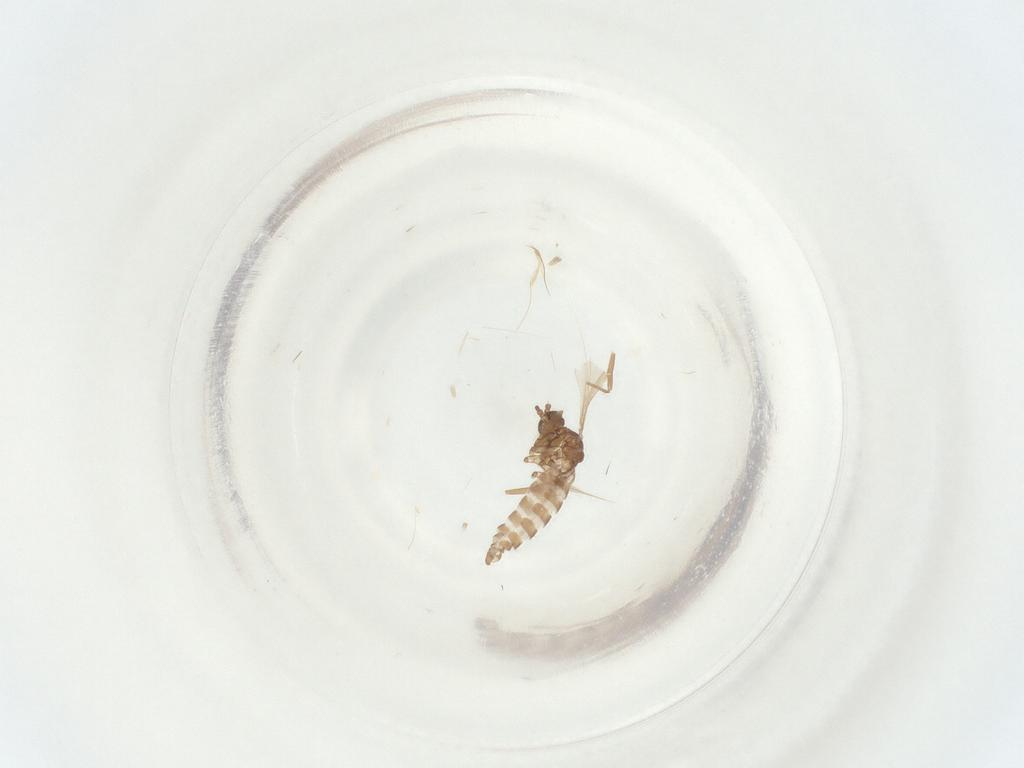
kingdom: Animalia
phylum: Arthropoda
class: Insecta
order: Diptera
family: Sciaridae
